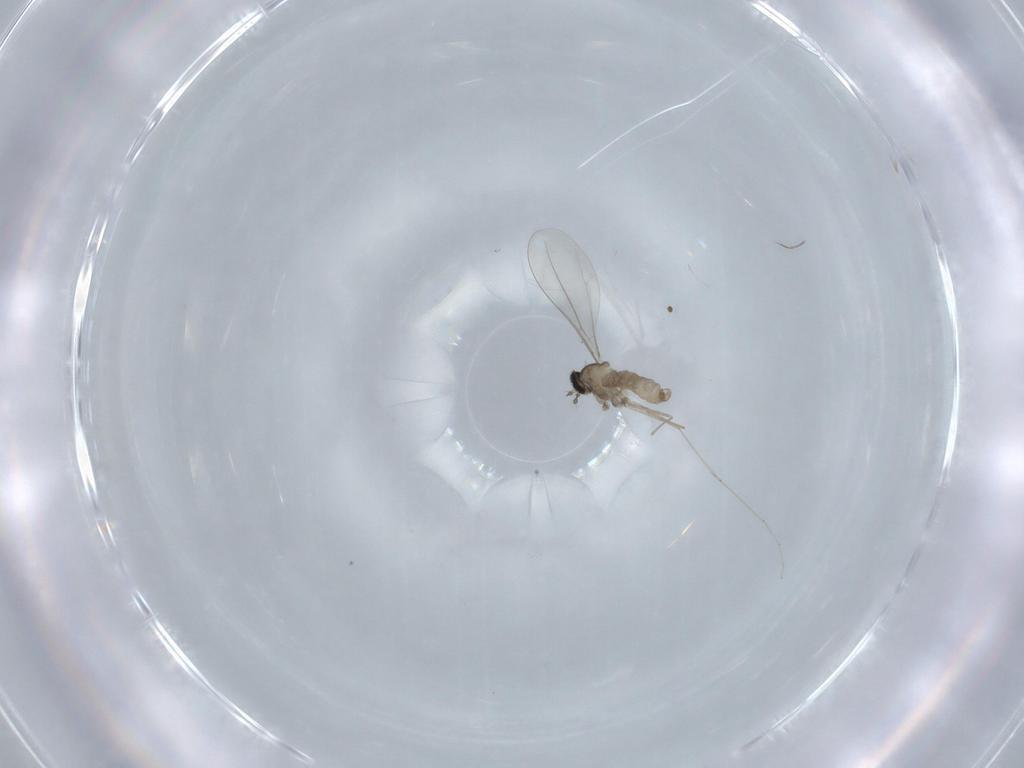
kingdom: Animalia
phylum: Arthropoda
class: Insecta
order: Diptera
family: Cecidomyiidae
